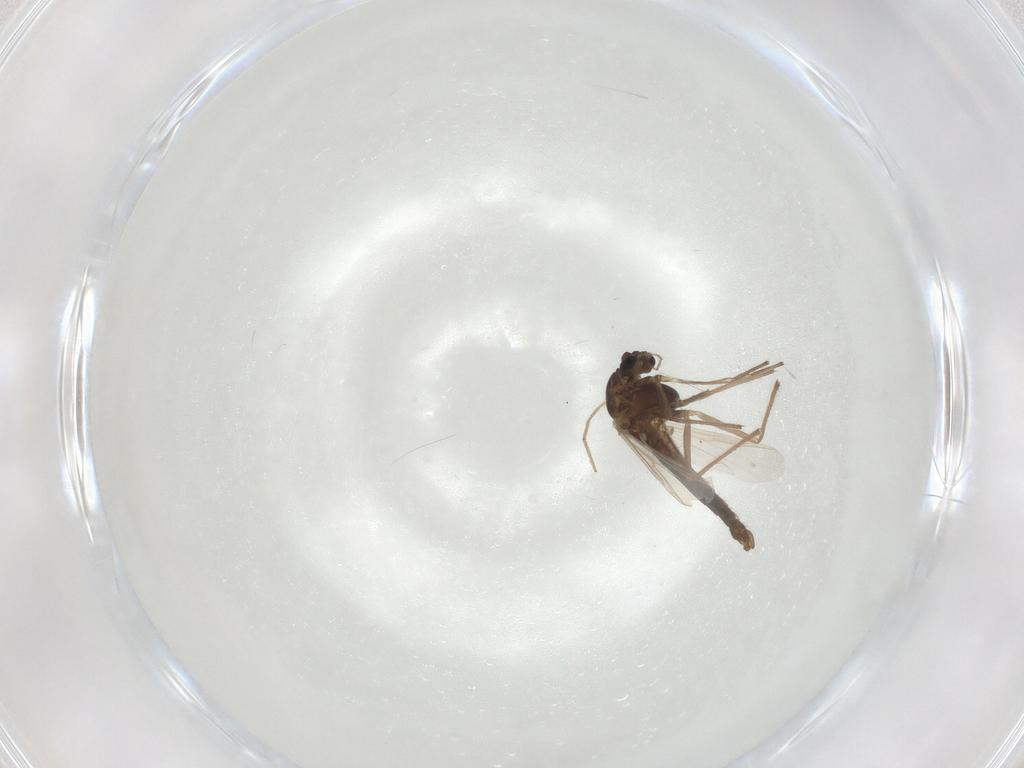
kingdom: Animalia
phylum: Arthropoda
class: Insecta
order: Diptera
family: Chironomidae
